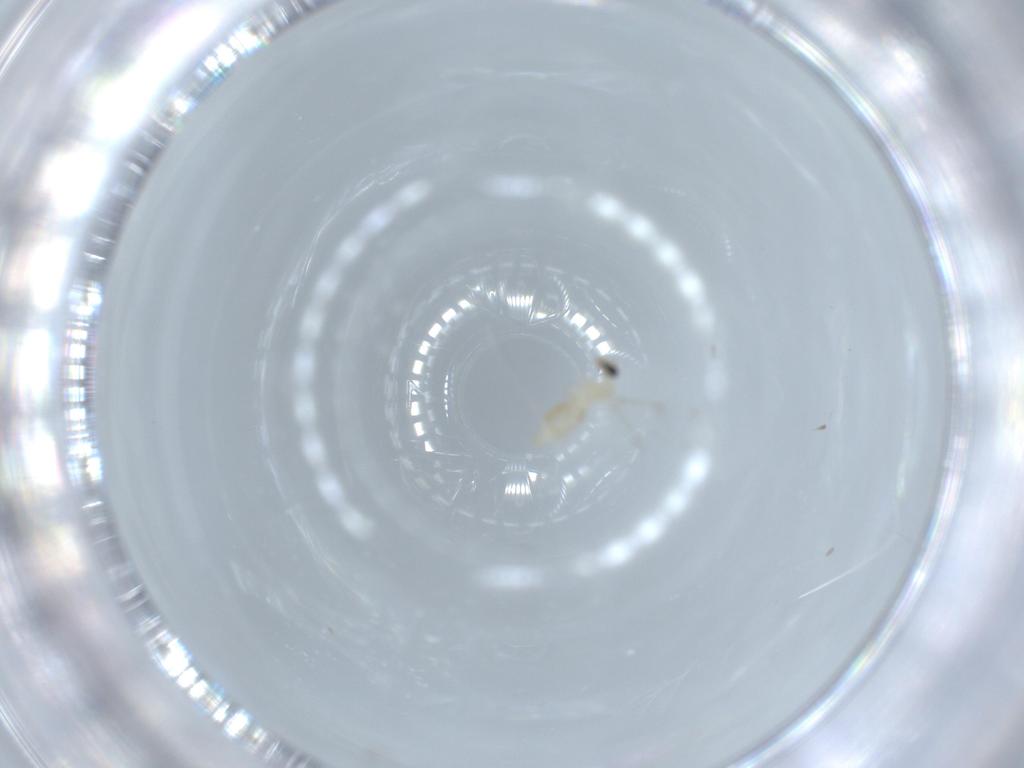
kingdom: Animalia
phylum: Arthropoda
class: Insecta
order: Diptera
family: Cecidomyiidae
